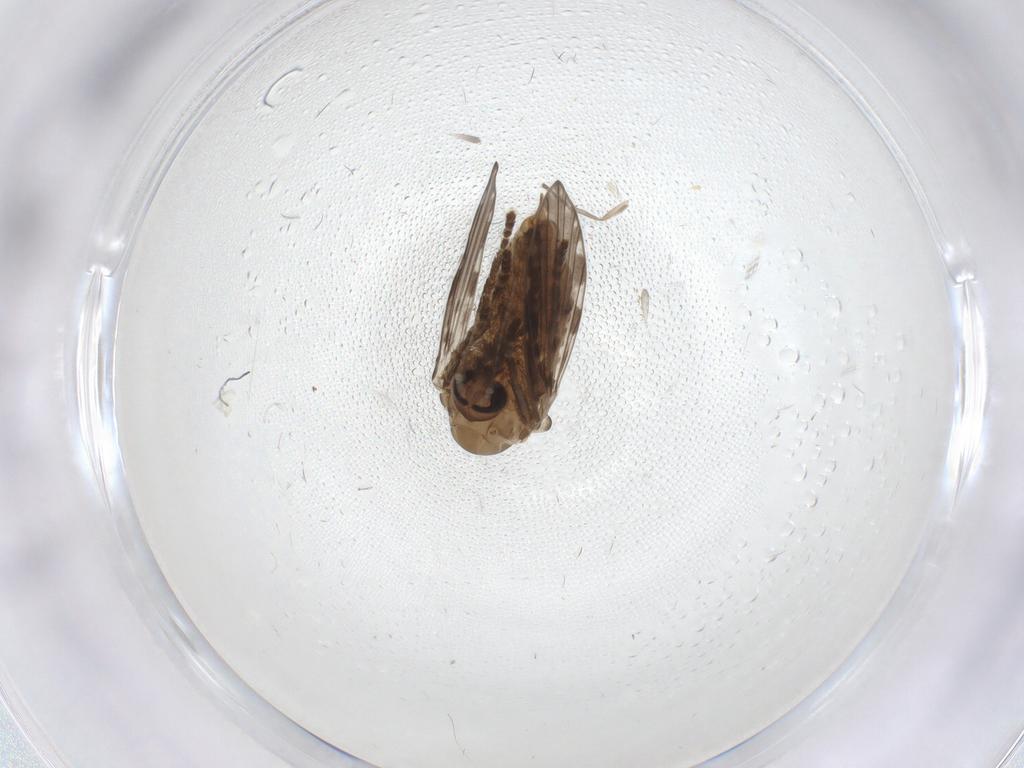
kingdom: Animalia
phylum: Arthropoda
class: Insecta
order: Diptera
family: Psychodidae
